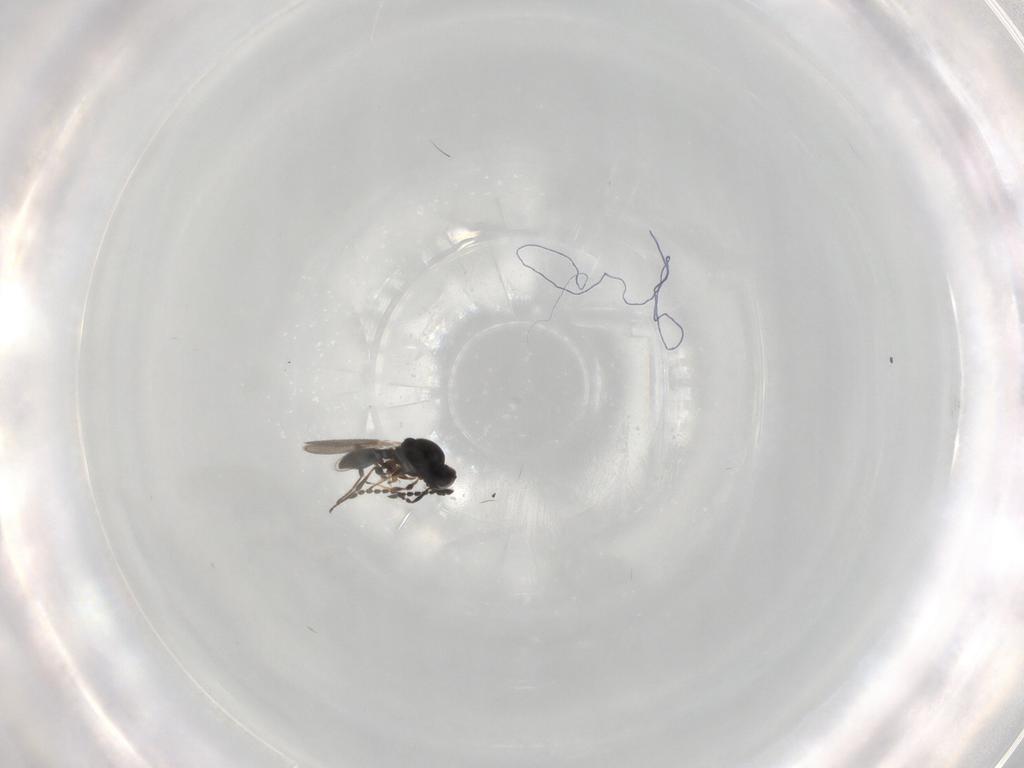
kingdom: Animalia
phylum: Arthropoda
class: Insecta
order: Hymenoptera
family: Platygastridae
